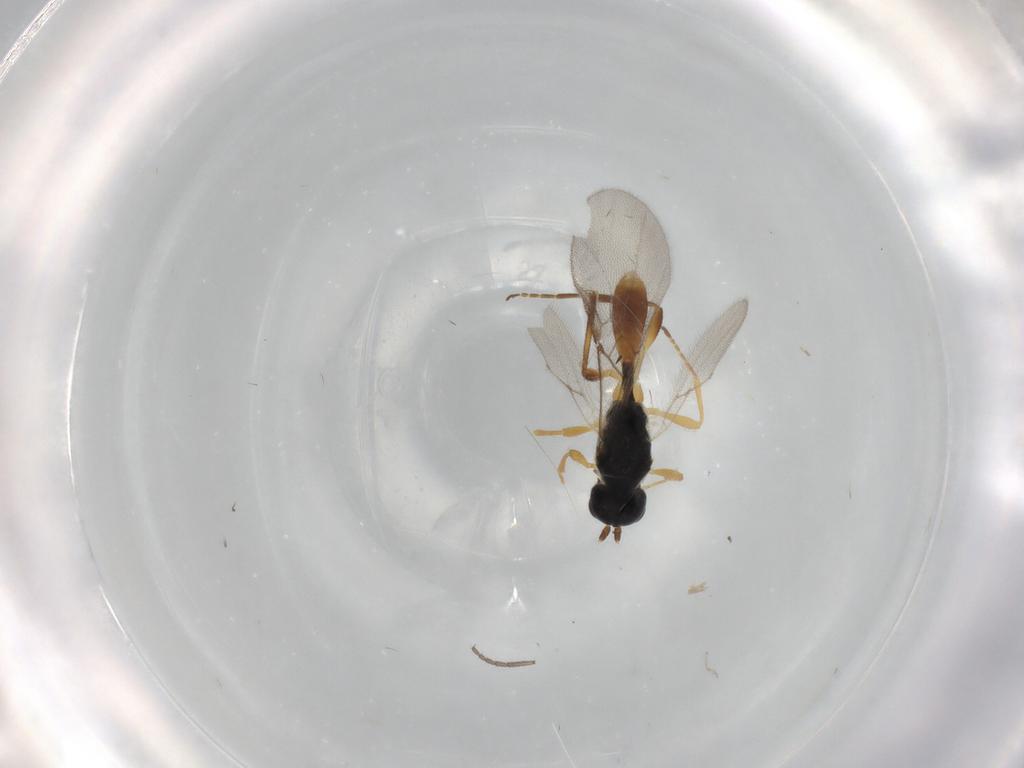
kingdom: Animalia
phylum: Arthropoda
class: Insecta
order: Hymenoptera
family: Braconidae
